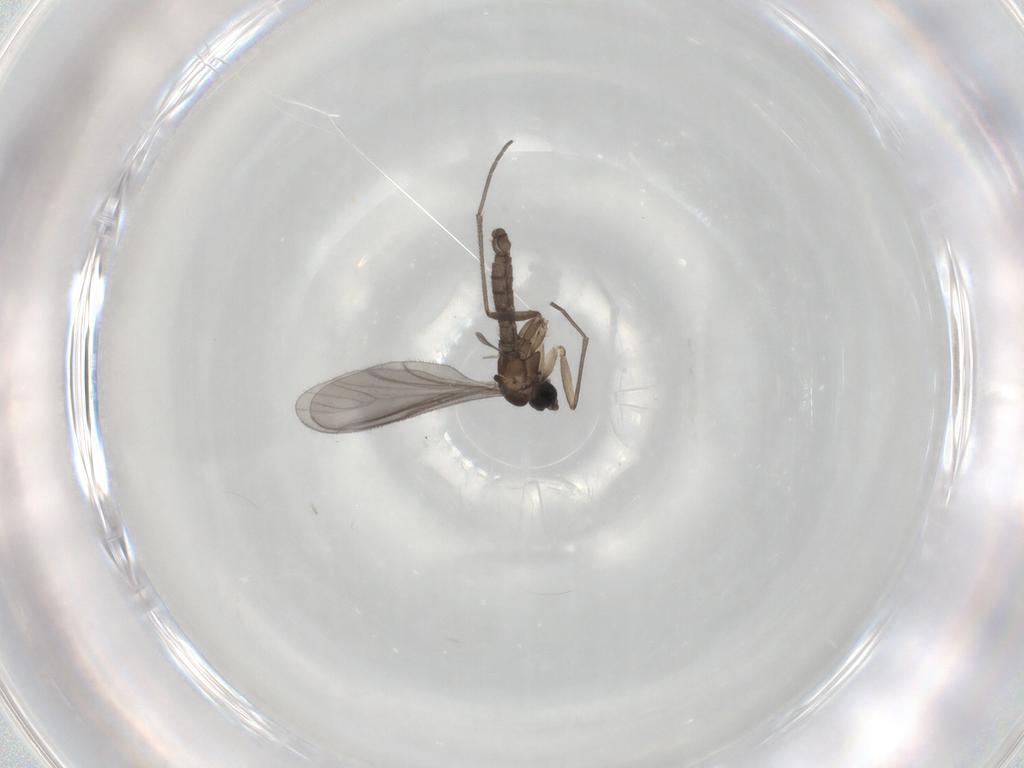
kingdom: Animalia
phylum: Arthropoda
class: Insecta
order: Diptera
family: Sciaridae
